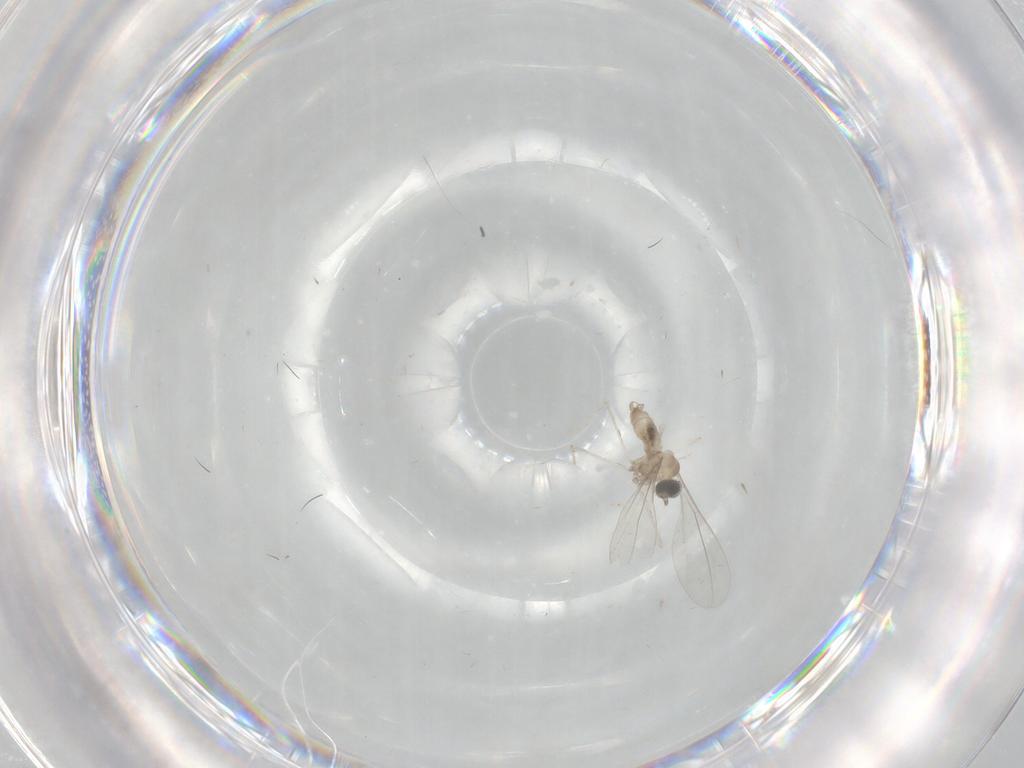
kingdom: Animalia
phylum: Arthropoda
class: Insecta
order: Diptera
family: Sciaridae
